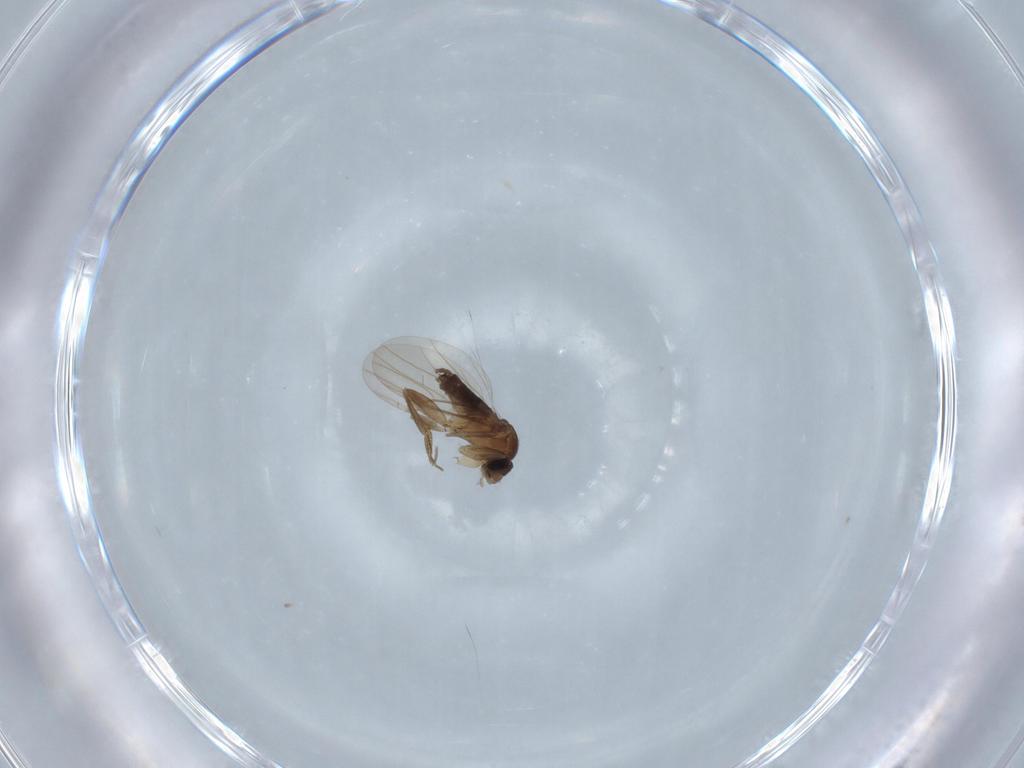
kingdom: Animalia
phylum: Arthropoda
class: Insecta
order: Diptera
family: Phoridae
